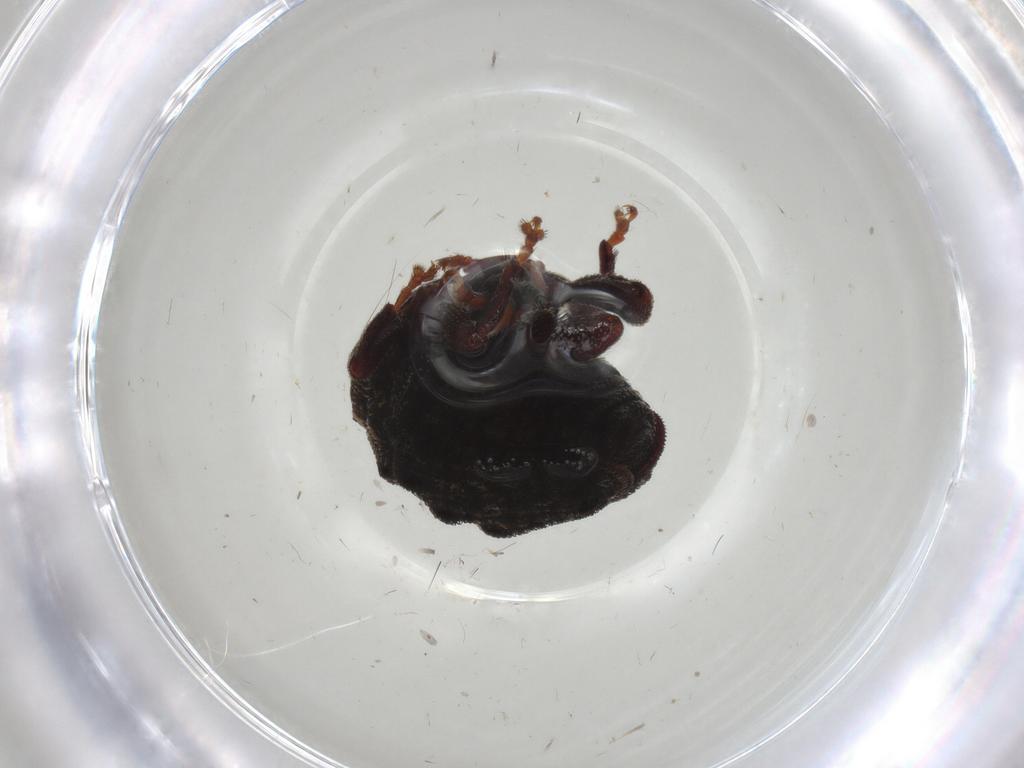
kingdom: Animalia
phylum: Arthropoda
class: Insecta
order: Coleoptera
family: Curculionidae
